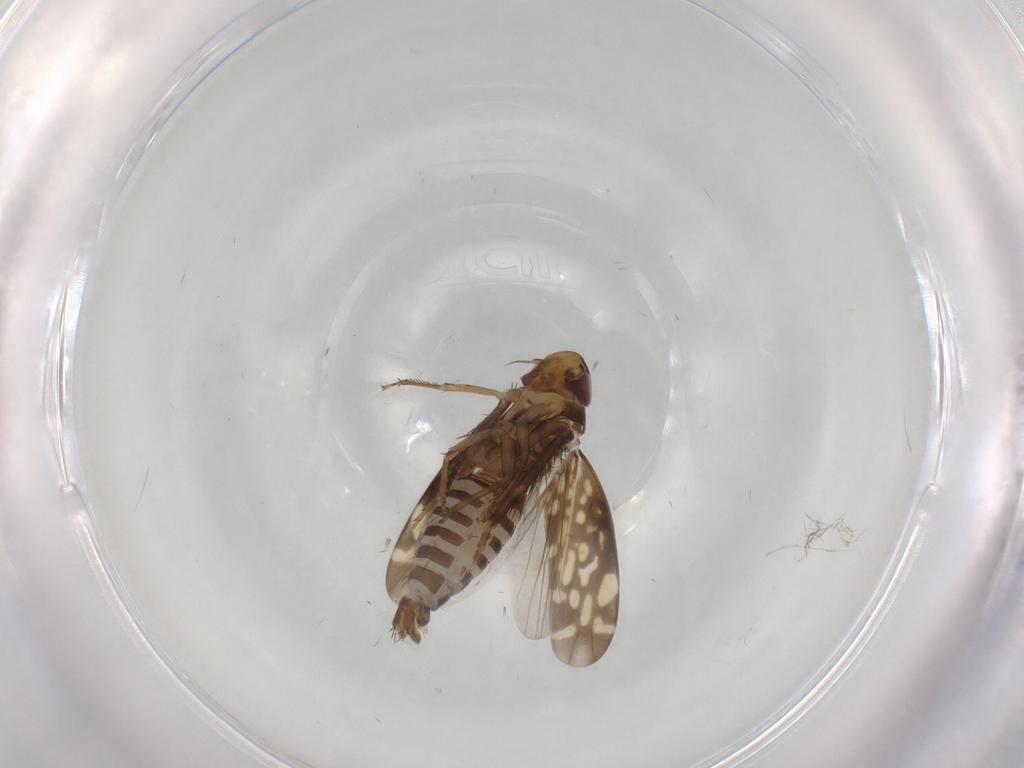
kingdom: Animalia
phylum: Arthropoda
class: Insecta
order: Hemiptera
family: Cicadellidae
